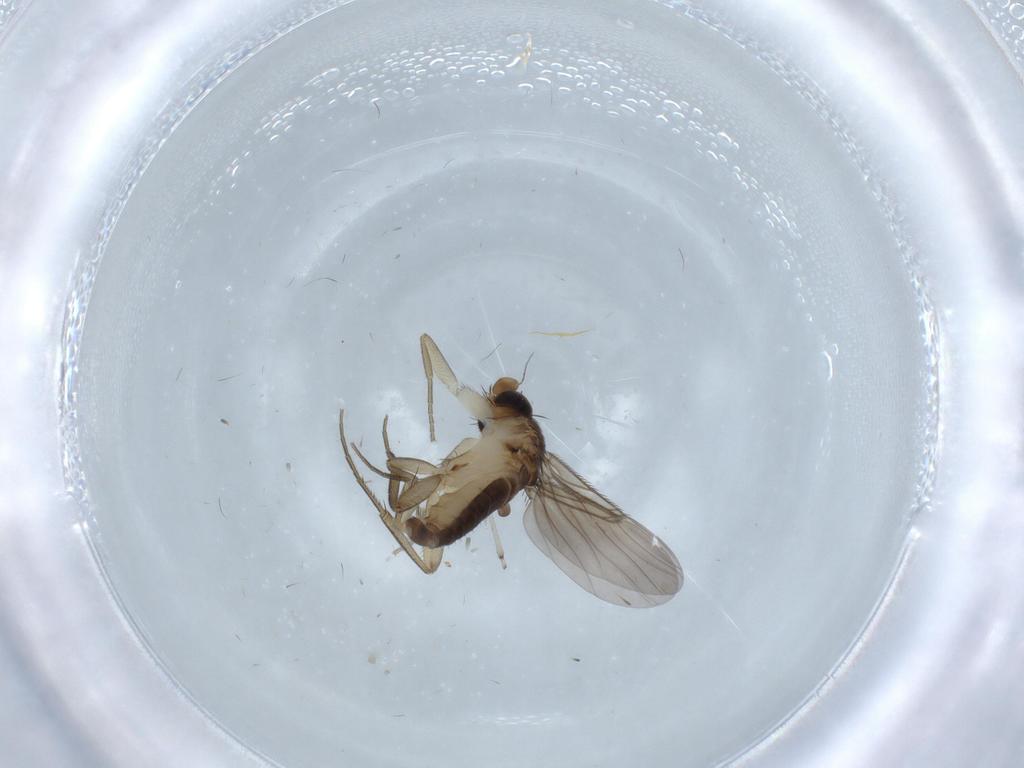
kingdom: Animalia
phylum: Arthropoda
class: Insecta
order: Diptera
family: Phoridae
